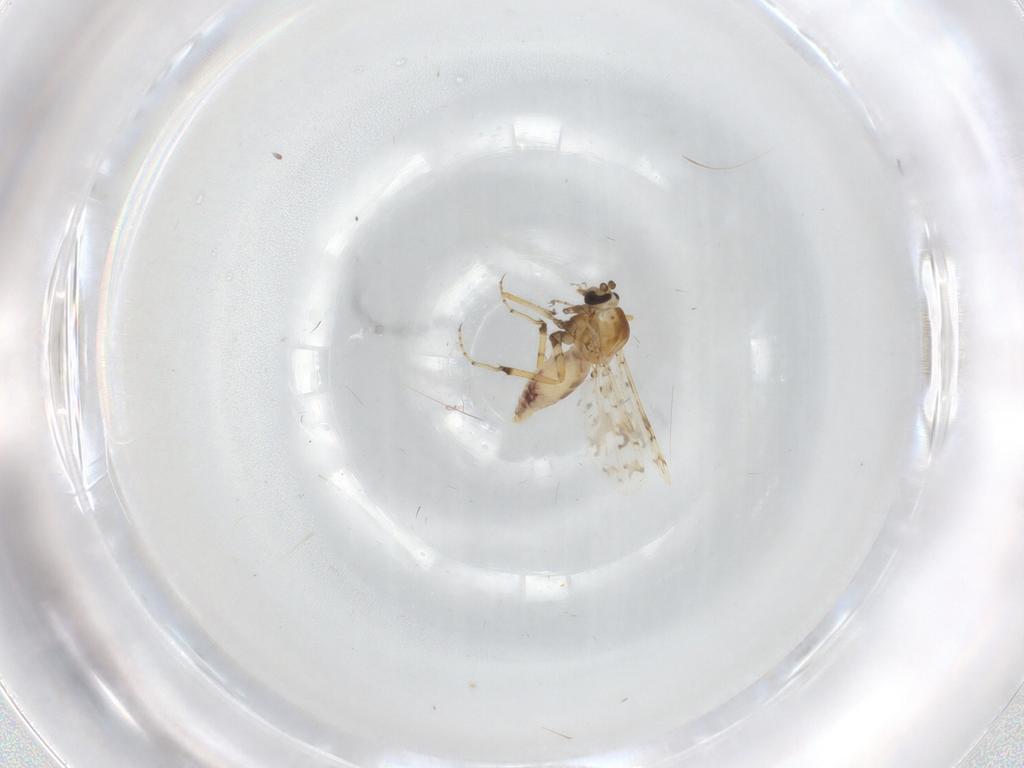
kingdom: Animalia
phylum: Arthropoda
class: Insecta
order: Diptera
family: Ceratopogonidae
